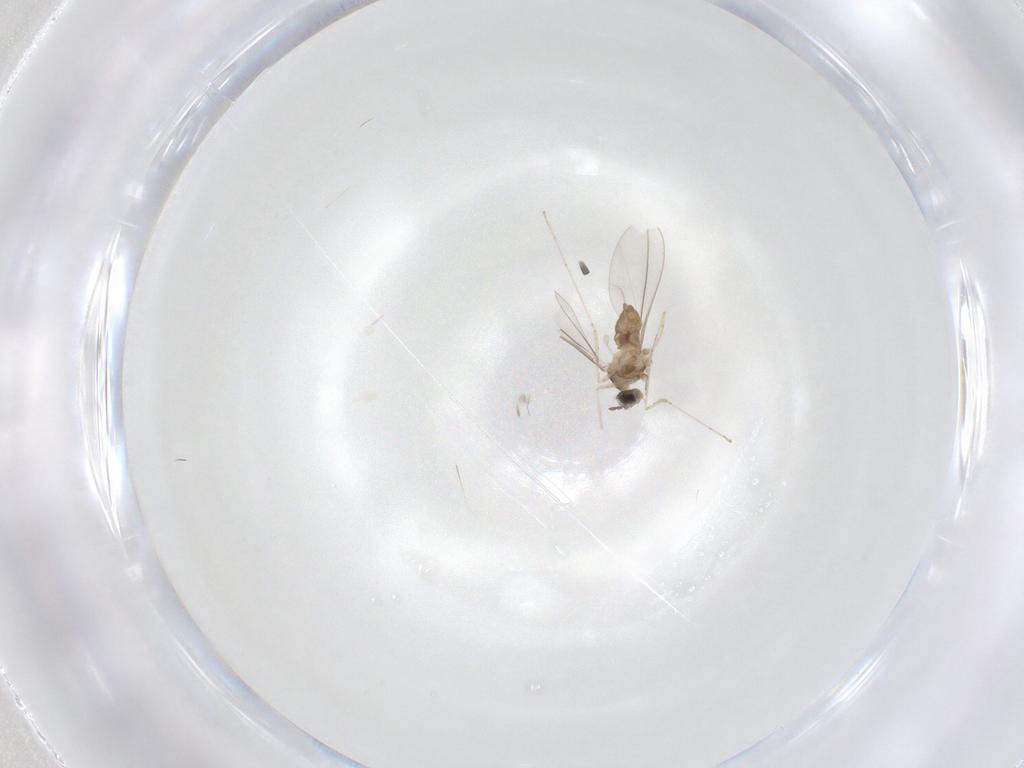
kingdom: Animalia
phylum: Arthropoda
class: Insecta
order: Diptera
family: Cecidomyiidae
